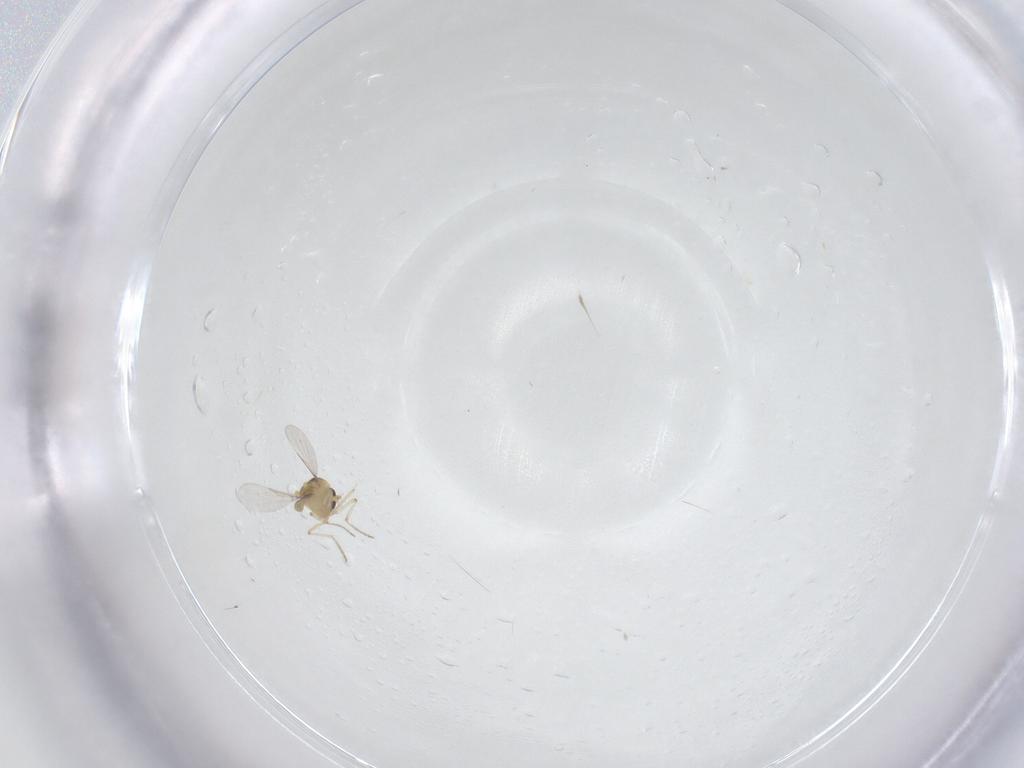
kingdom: Animalia
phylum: Arthropoda
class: Insecta
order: Diptera
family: Ceratopogonidae
